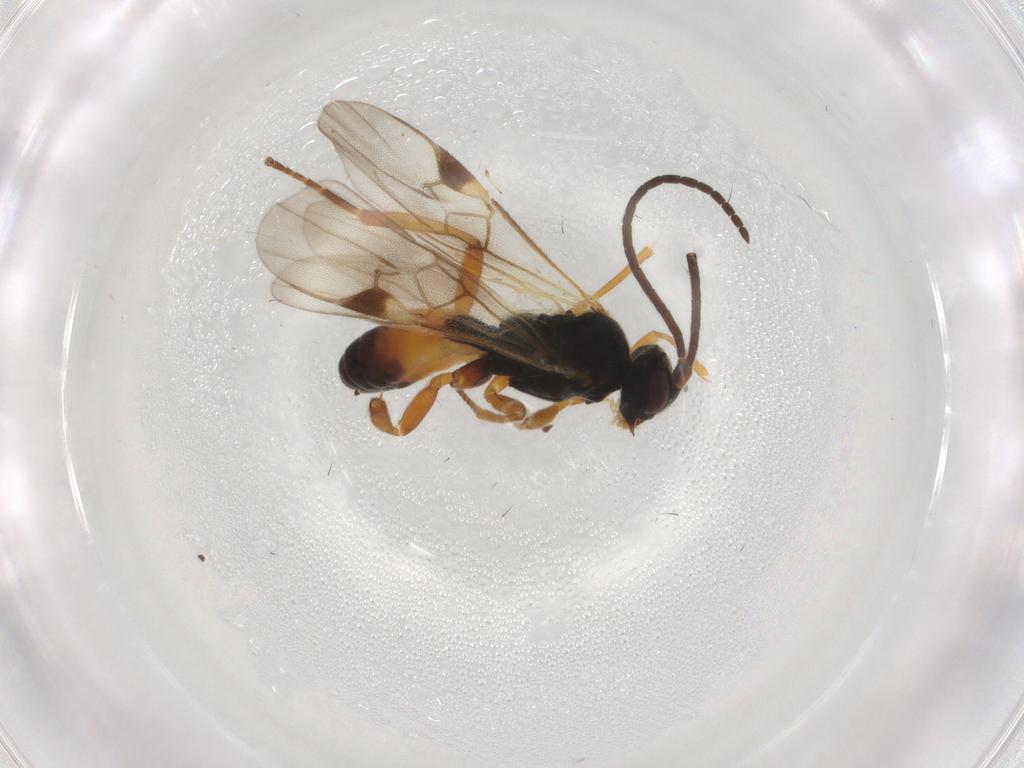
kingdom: Animalia
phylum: Arthropoda
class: Insecta
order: Hymenoptera
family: Braconidae
